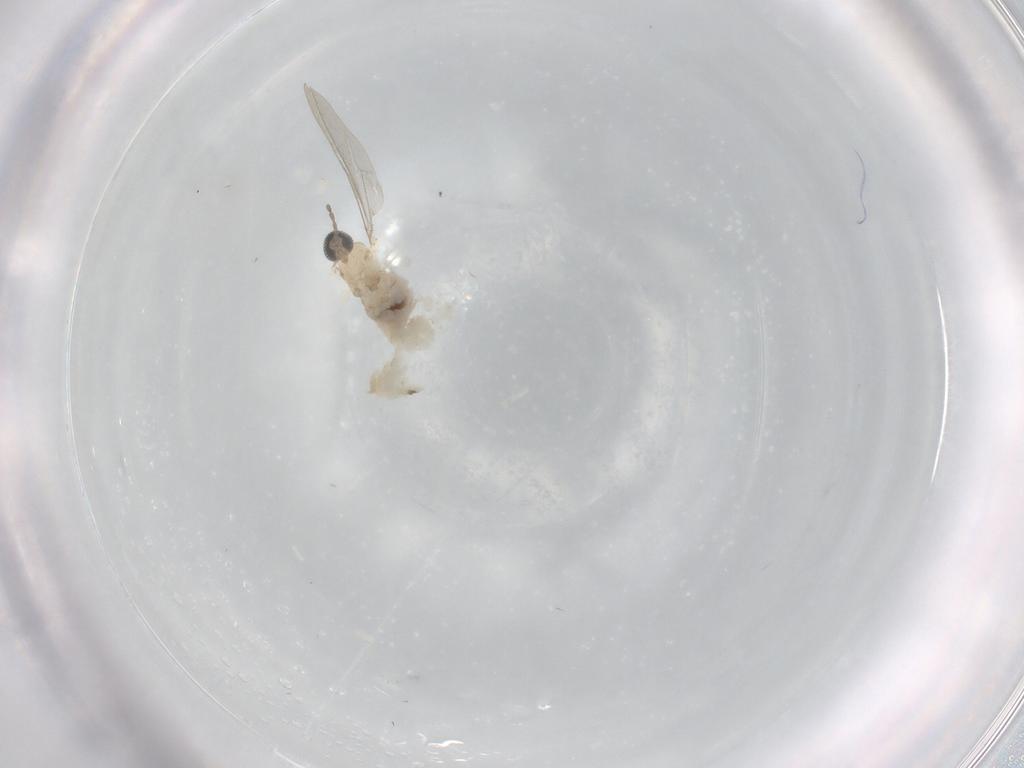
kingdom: Animalia
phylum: Arthropoda
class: Insecta
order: Diptera
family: Cecidomyiidae
